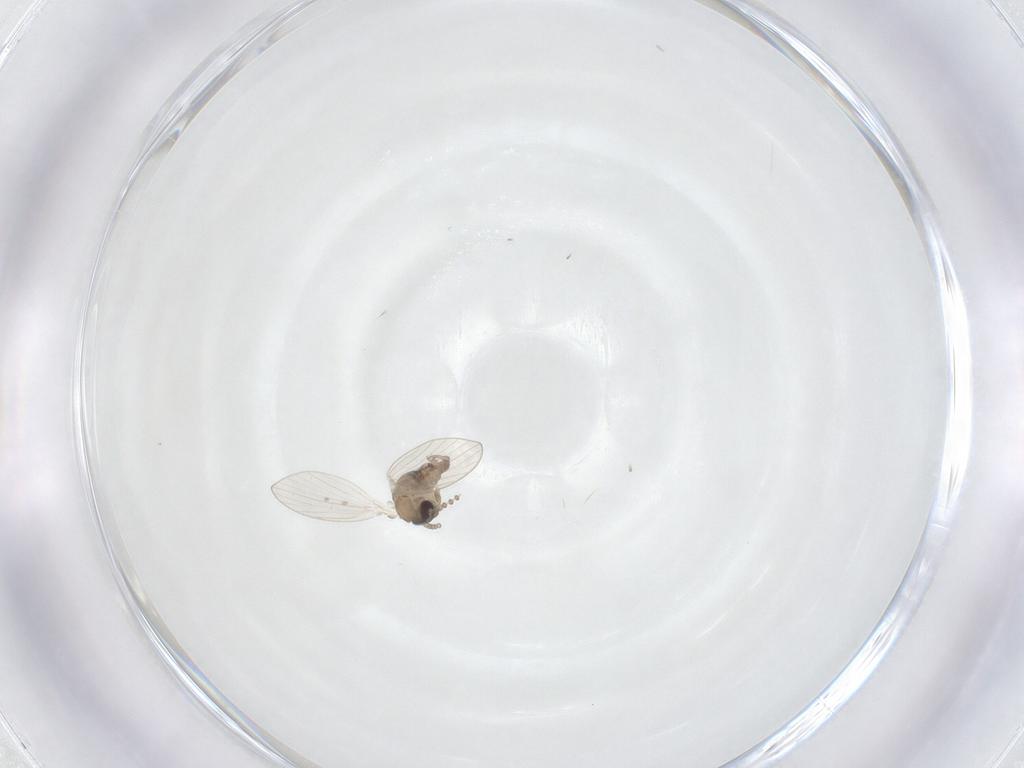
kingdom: Animalia
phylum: Arthropoda
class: Insecta
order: Diptera
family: Psychodidae
